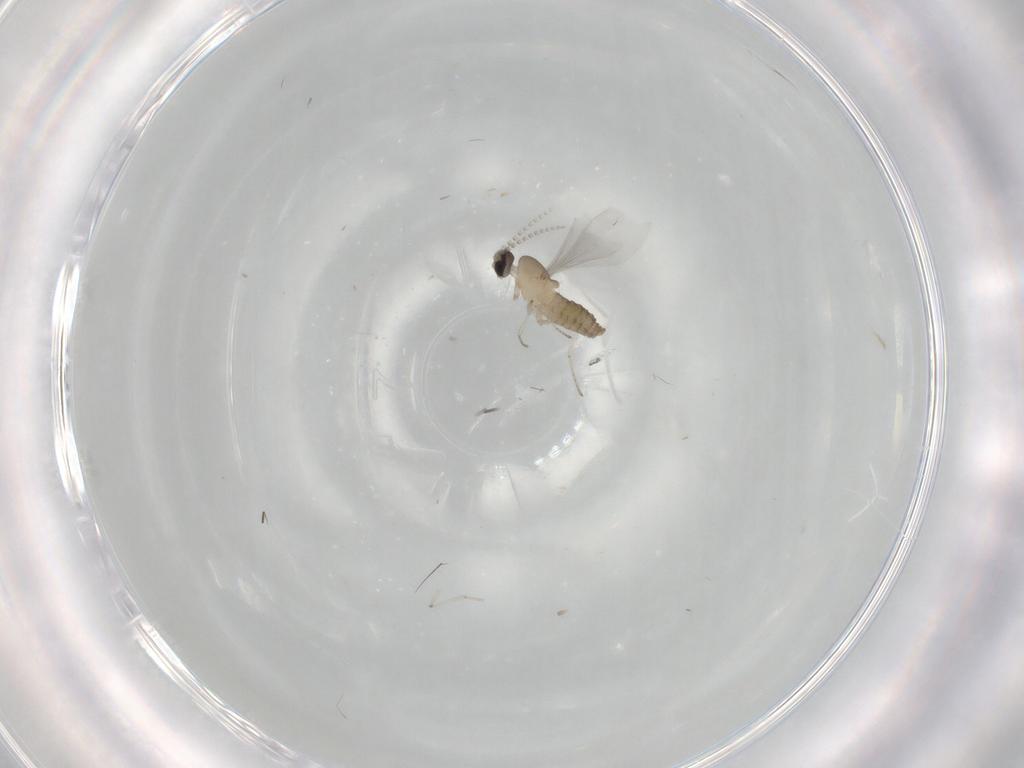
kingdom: Animalia
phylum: Arthropoda
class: Insecta
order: Diptera
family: Cecidomyiidae
